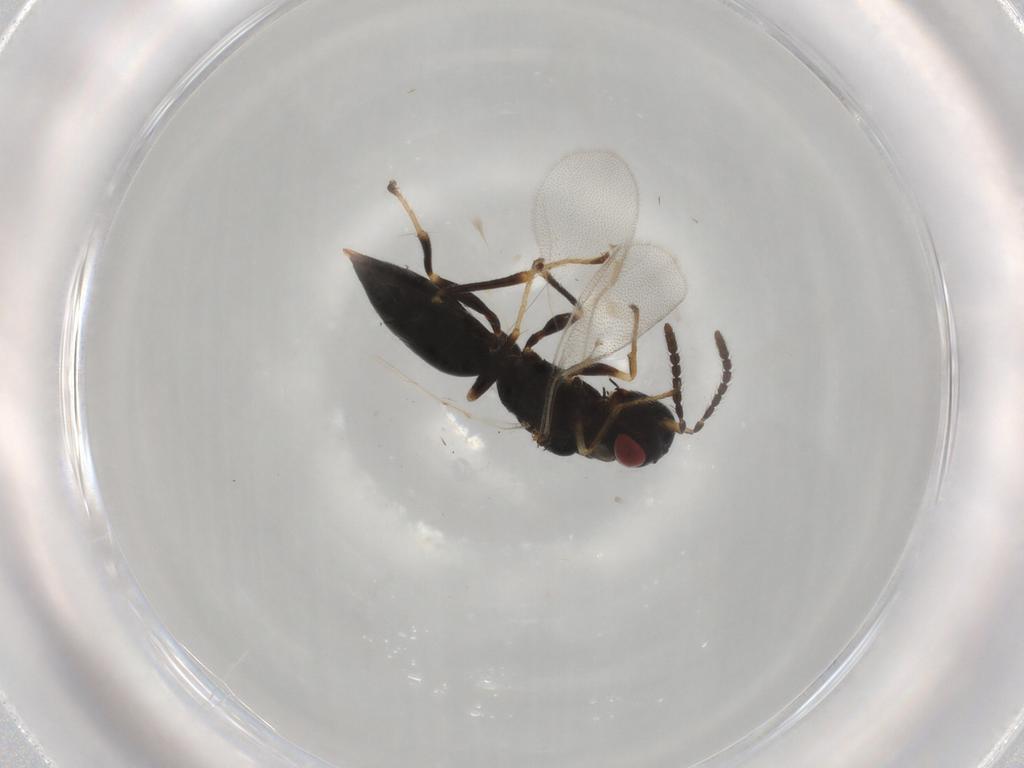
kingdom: Animalia
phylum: Arthropoda
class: Insecta
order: Hymenoptera
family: Eurytomidae
